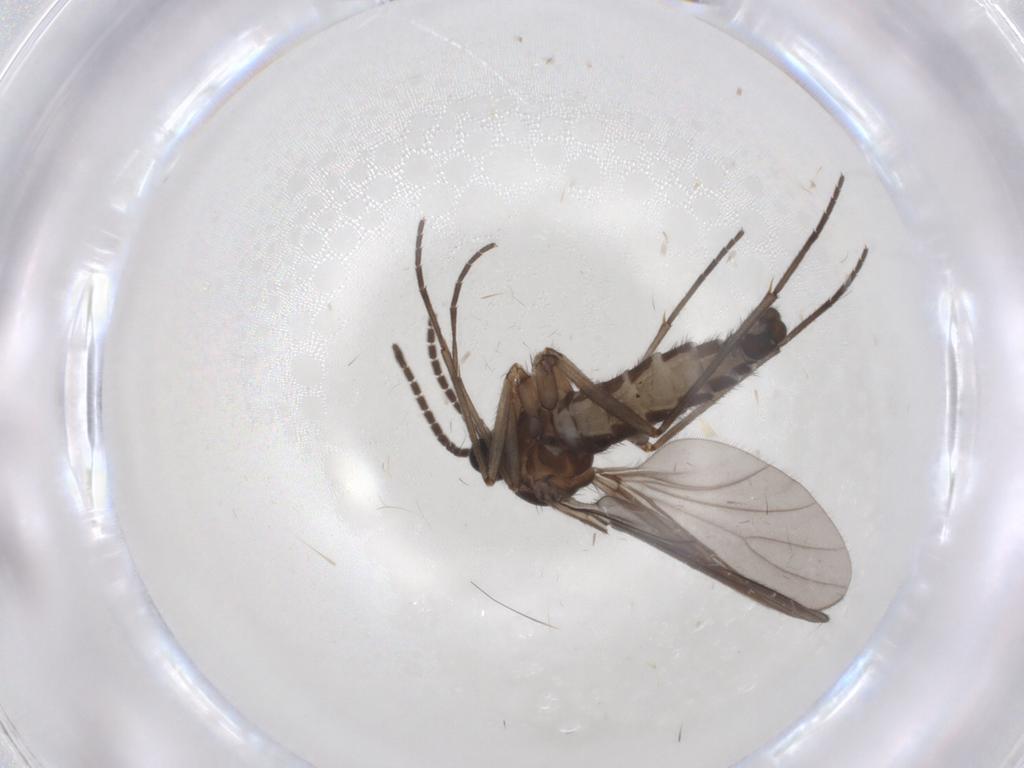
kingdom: Animalia
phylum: Arthropoda
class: Insecta
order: Diptera
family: Sciaridae
